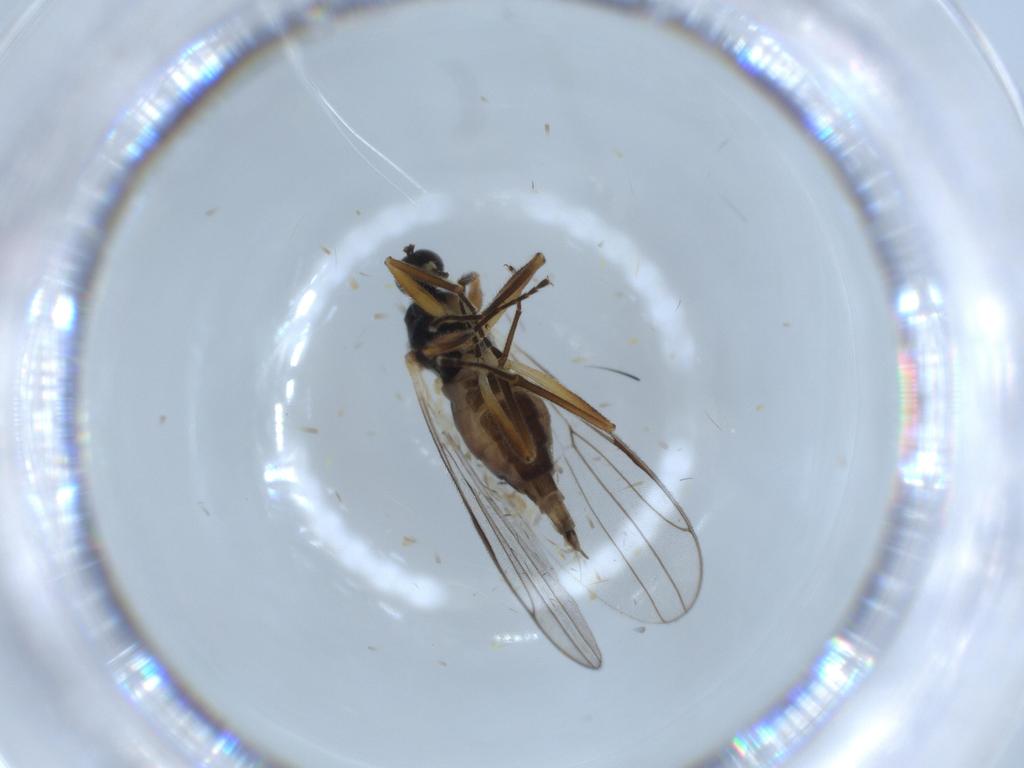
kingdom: Animalia
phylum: Arthropoda
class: Insecta
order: Diptera
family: Hybotidae
